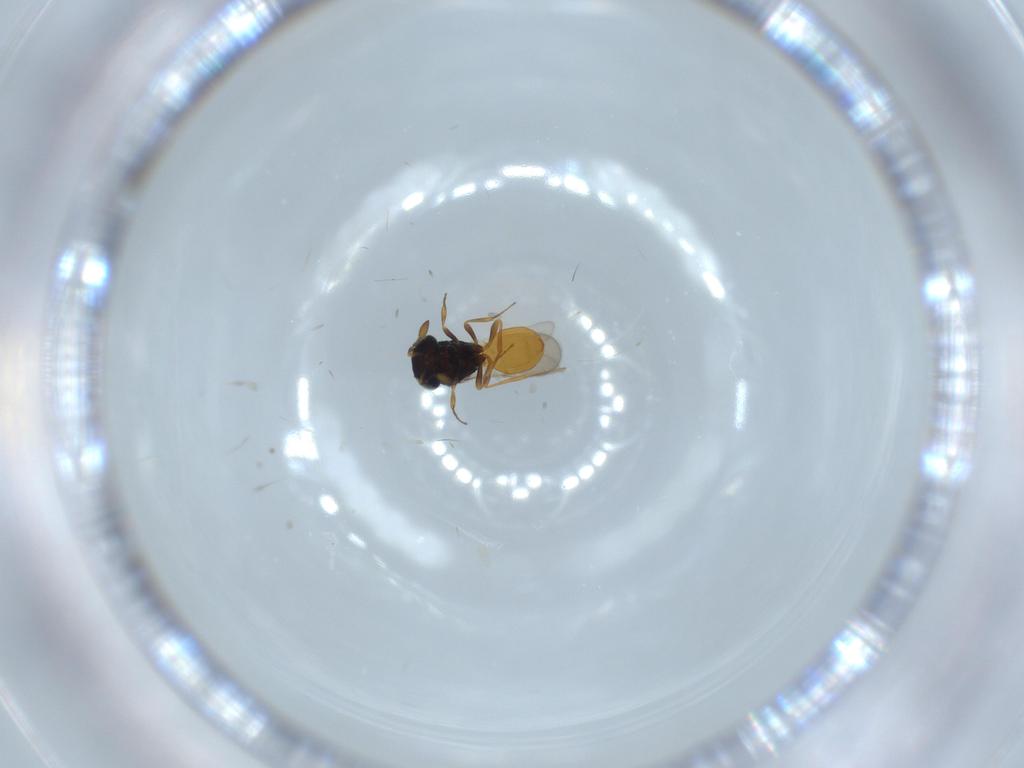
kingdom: Animalia
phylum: Arthropoda
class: Insecta
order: Hymenoptera
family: Scelionidae
